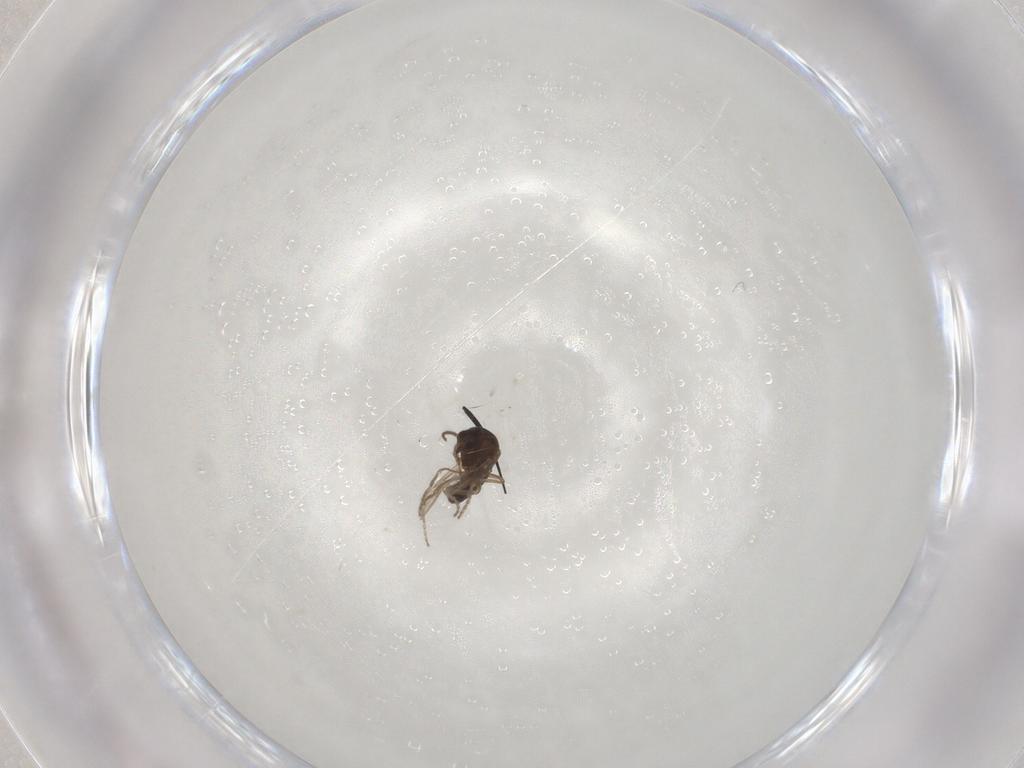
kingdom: Animalia
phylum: Arthropoda
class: Insecta
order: Diptera
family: Ceratopogonidae
